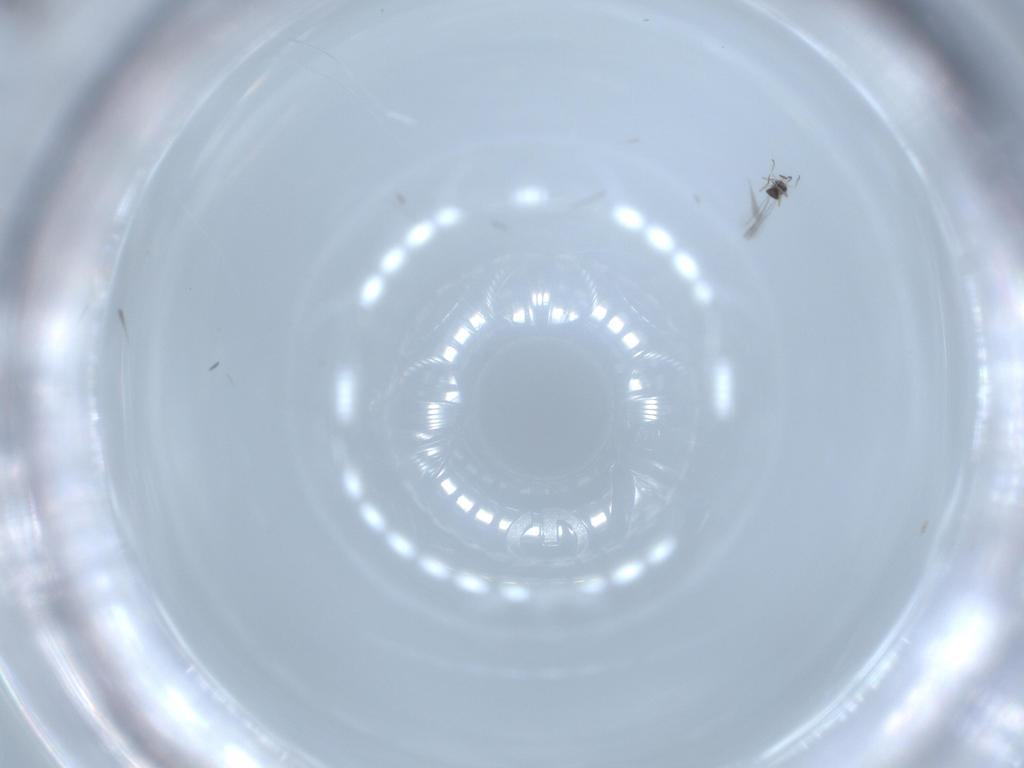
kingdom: Animalia
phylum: Arthropoda
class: Insecta
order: Hymenoptera
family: Mymaridae
